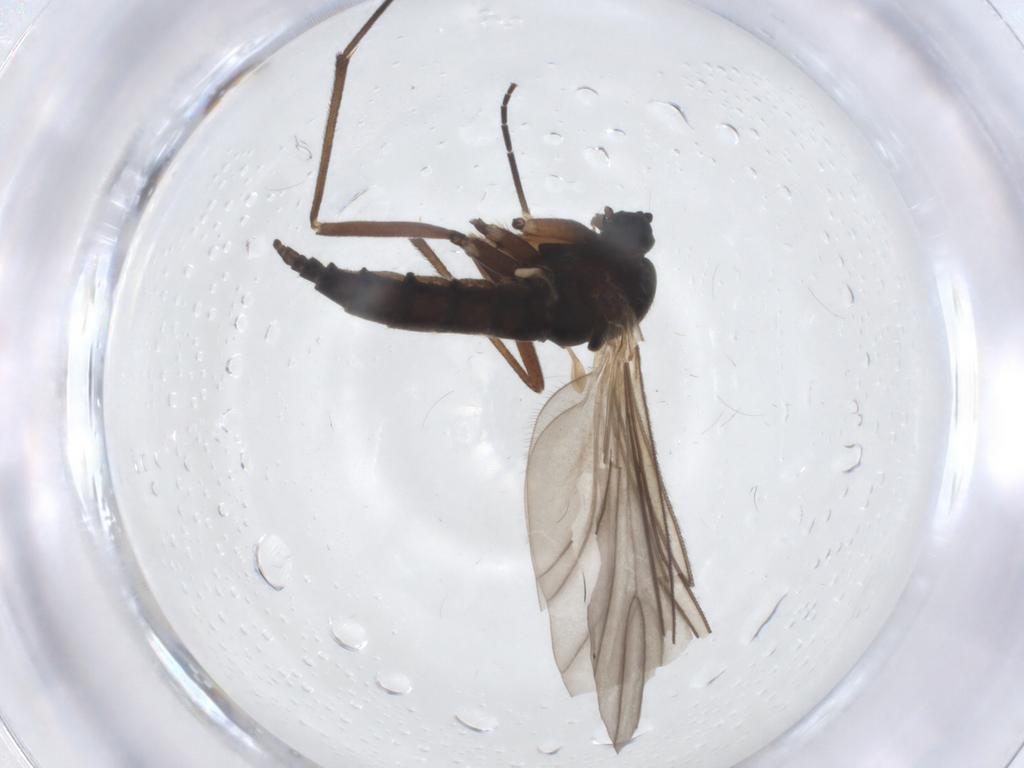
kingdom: Animalia
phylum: Arthropoda
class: Insecta
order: Diptera
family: Sciaridae
